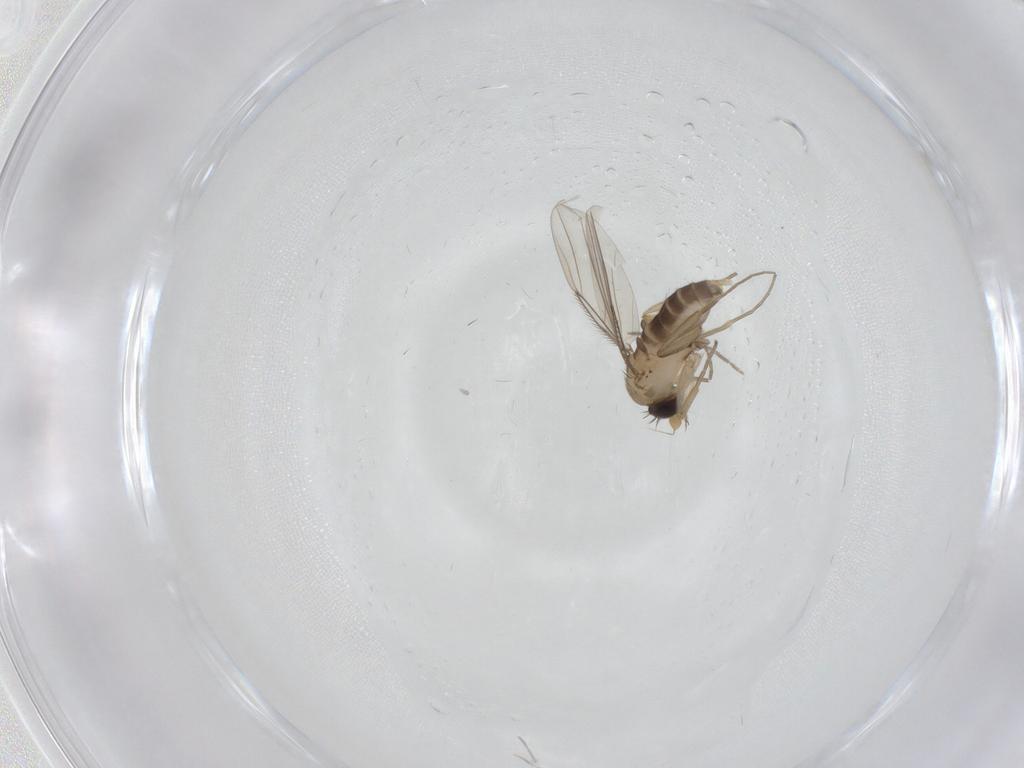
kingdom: Animalia
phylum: Arthropoda
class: Insecta
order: Diptera
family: Phoridae
